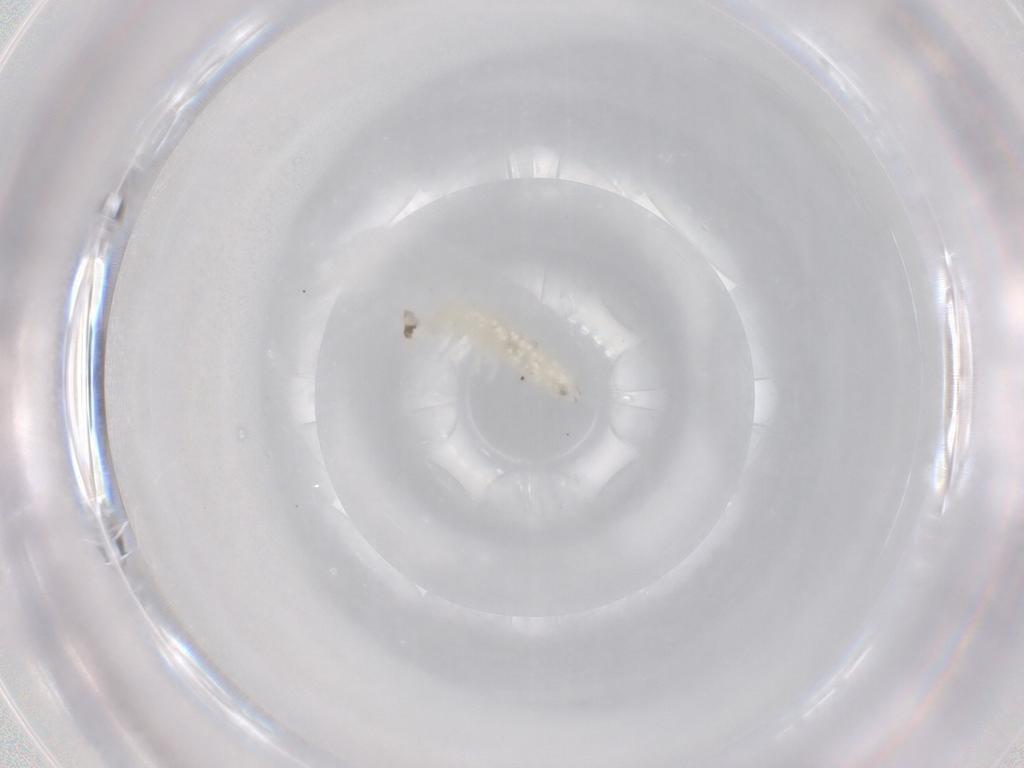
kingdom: Animalia
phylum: Arthropoda
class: Collembola
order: Poduromorpha
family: Onychiuridae
